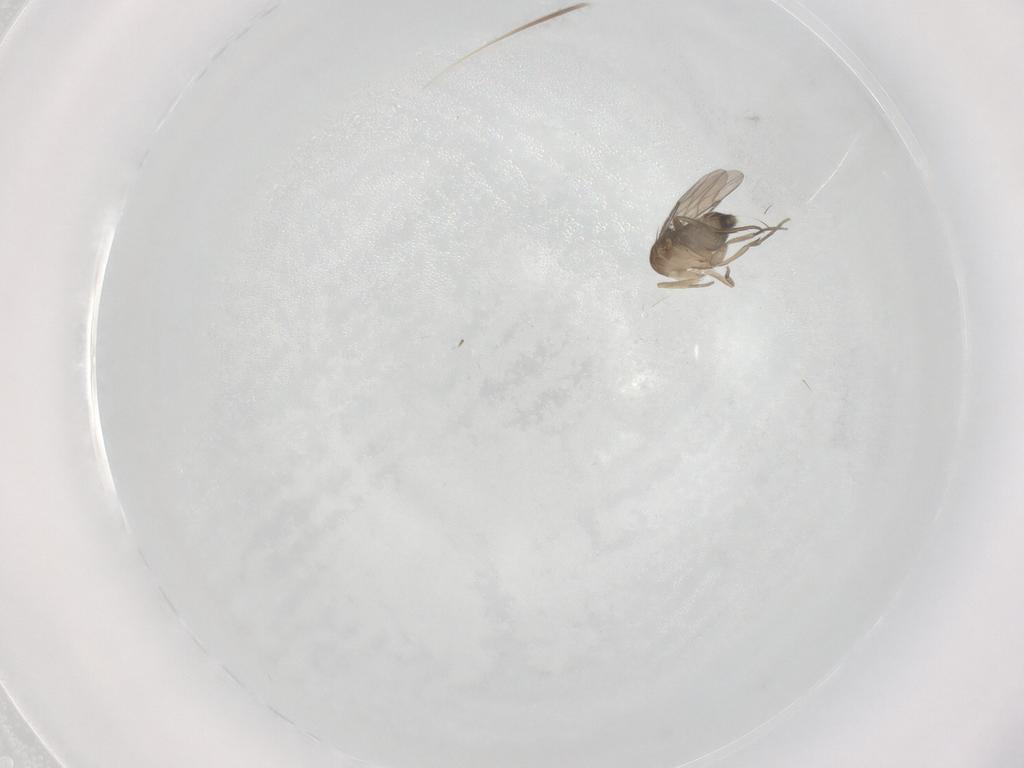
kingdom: Animalia
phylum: Arthropoda
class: Insecta
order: Diptera
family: Phoridae
